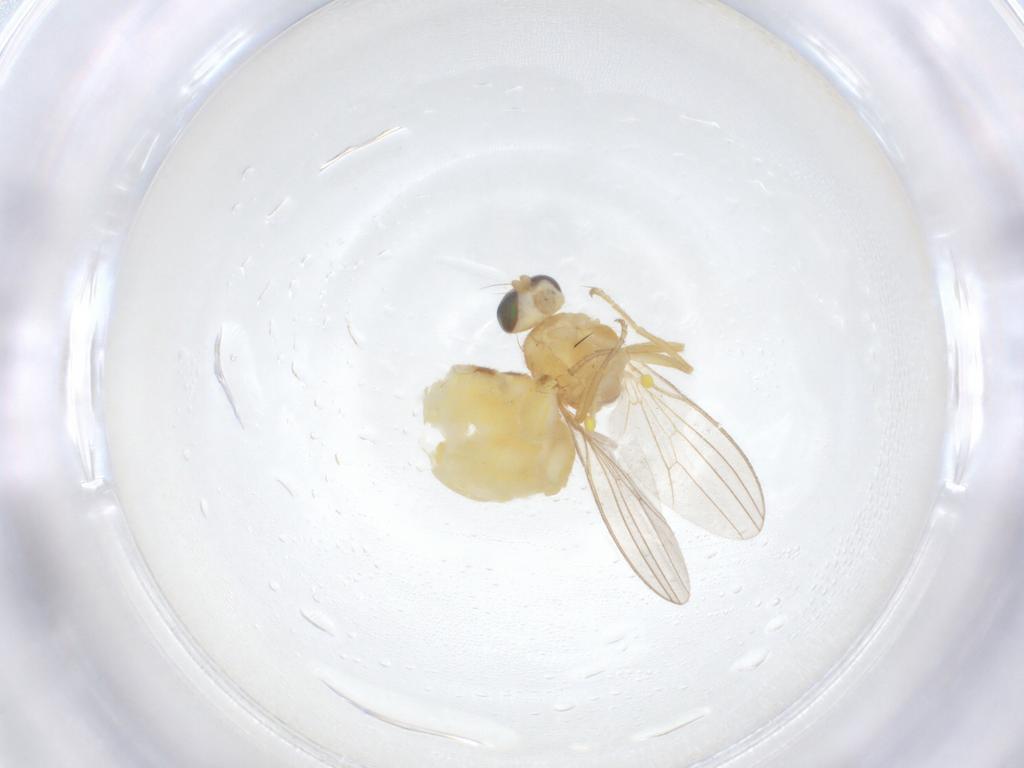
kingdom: Animalia
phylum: Arthropoda
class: Insecta
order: Diptera
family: Chyromyidae
